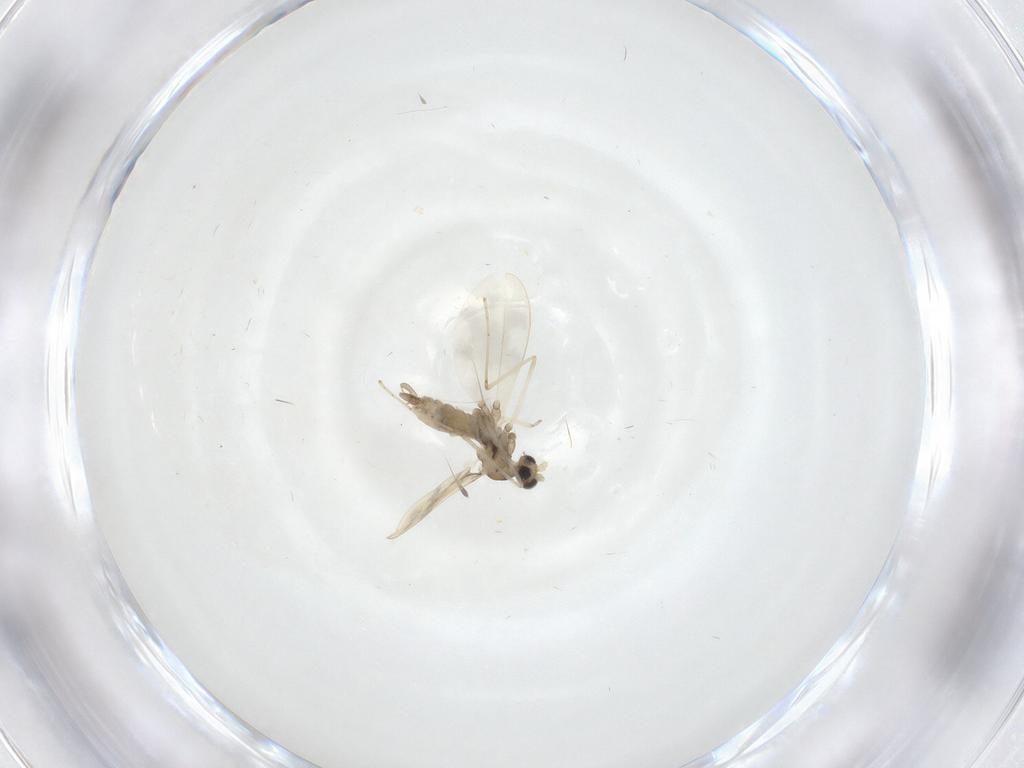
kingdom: Animalia
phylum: Arthropoda
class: Insecta
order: Diptera
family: Cecidomyiidae
